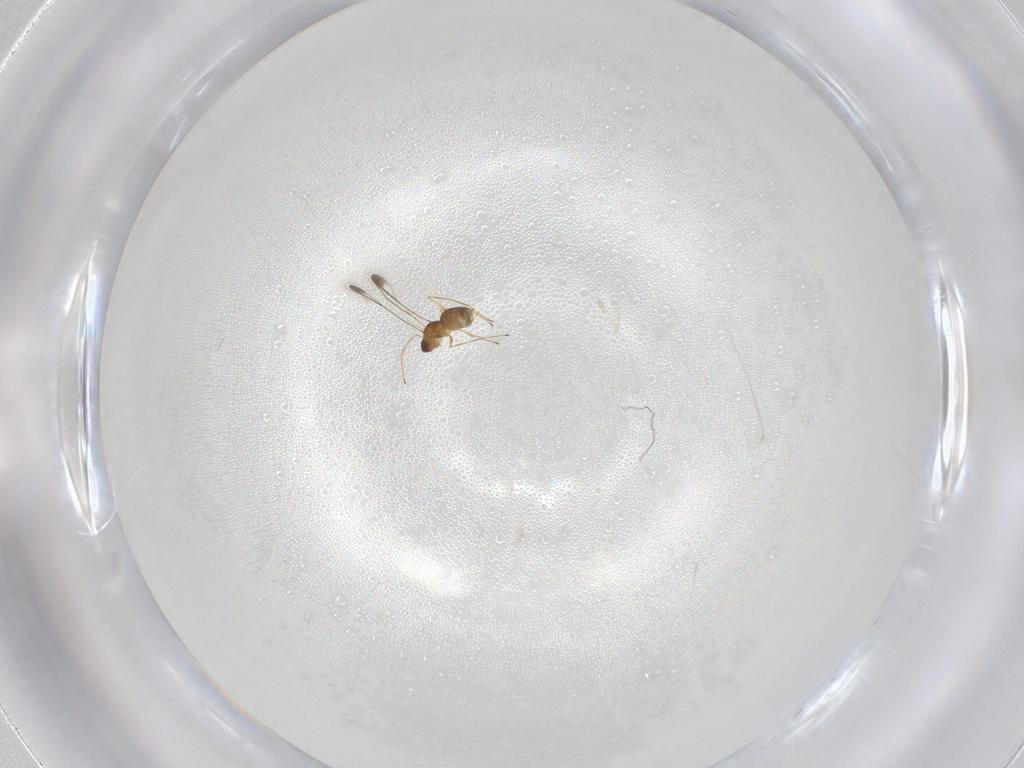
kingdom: Animalia
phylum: Arthropoda
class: Insecta
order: Hymenoptera
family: Mymaridae
